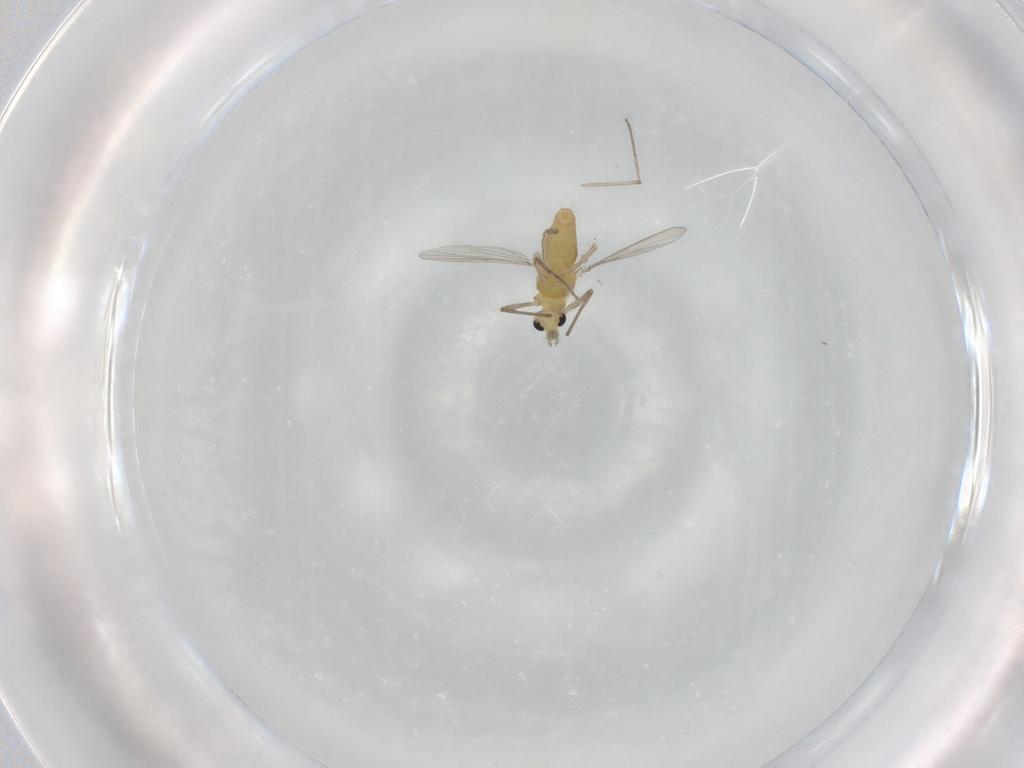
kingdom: Animalia
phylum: Arthropoda
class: Insecta
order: Diptera
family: Chironomidae
